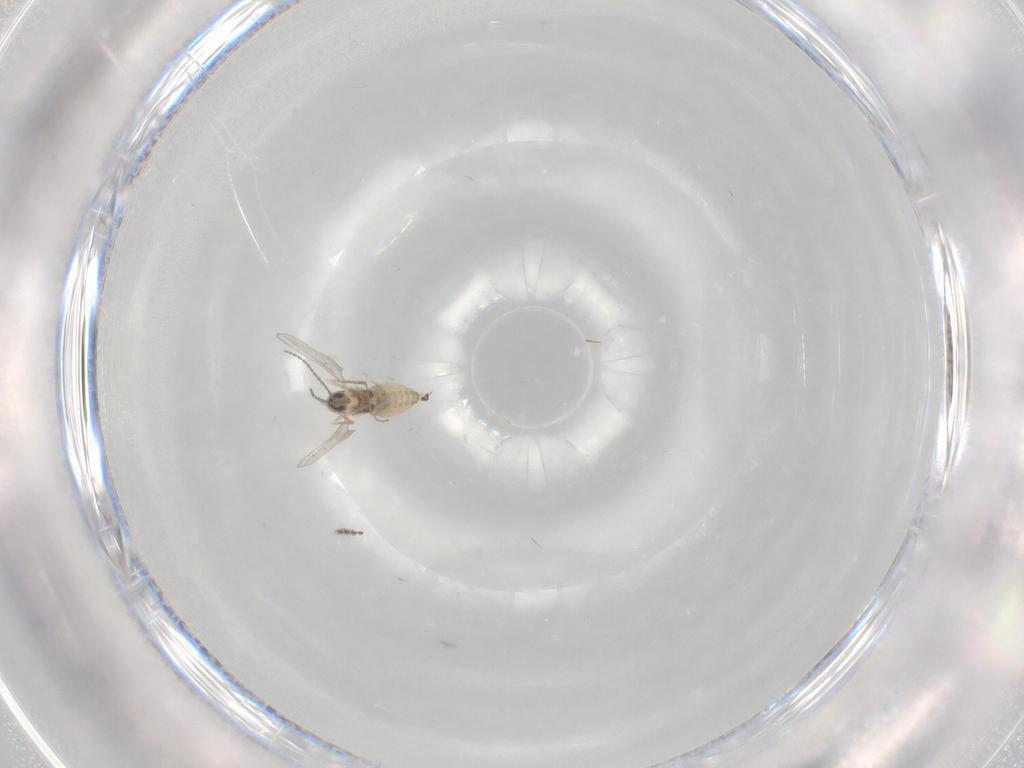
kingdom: Animalia
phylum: Arthropoda
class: Insecta
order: Diptera
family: Cecidomyiidae
